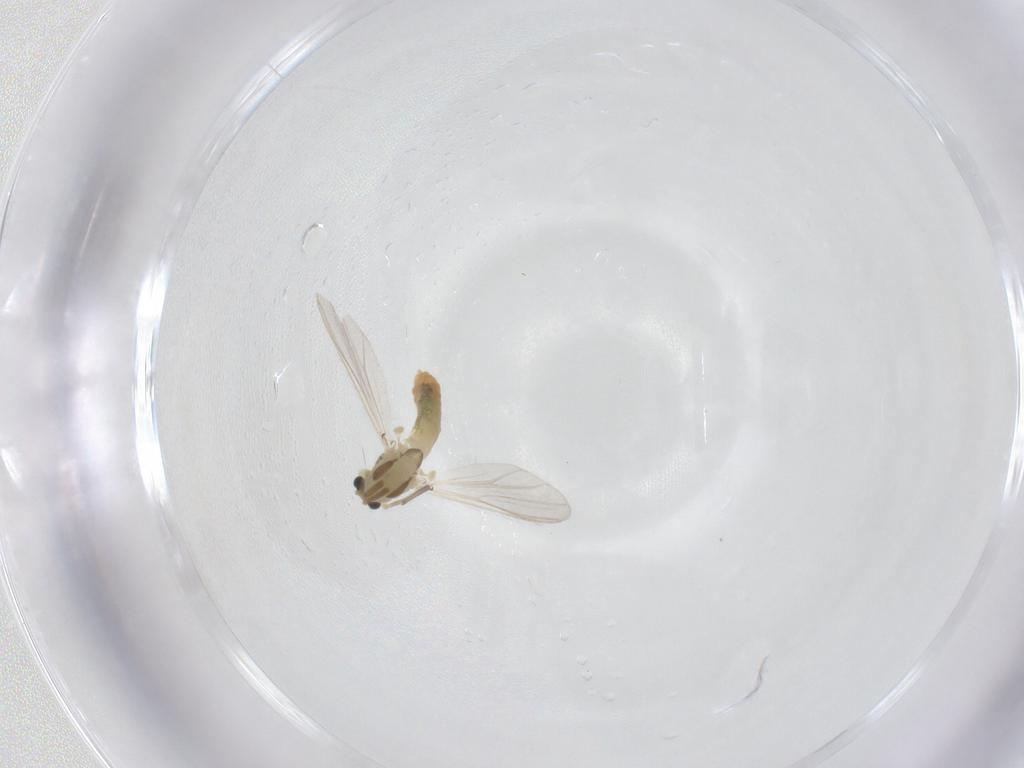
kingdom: Animalia
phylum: Arthropoda
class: Insecta
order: Diptera
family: Chironomidae
